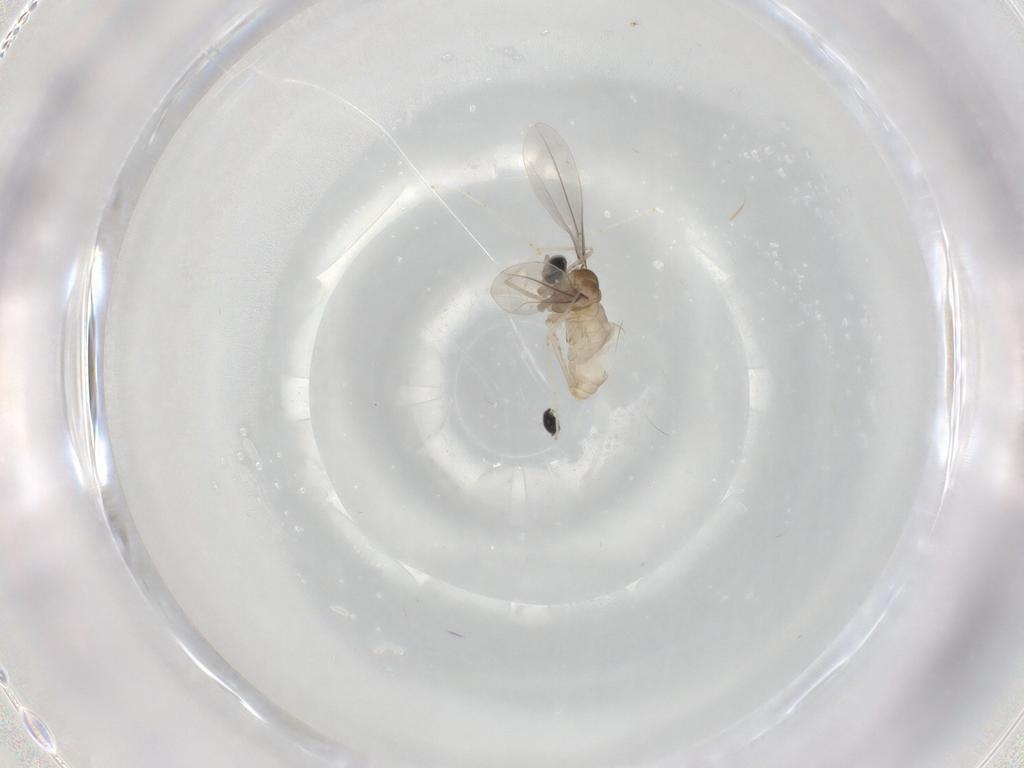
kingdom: Animalia
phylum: Arthropoda
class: Insecta
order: Diptera
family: Cecidomyiidae
